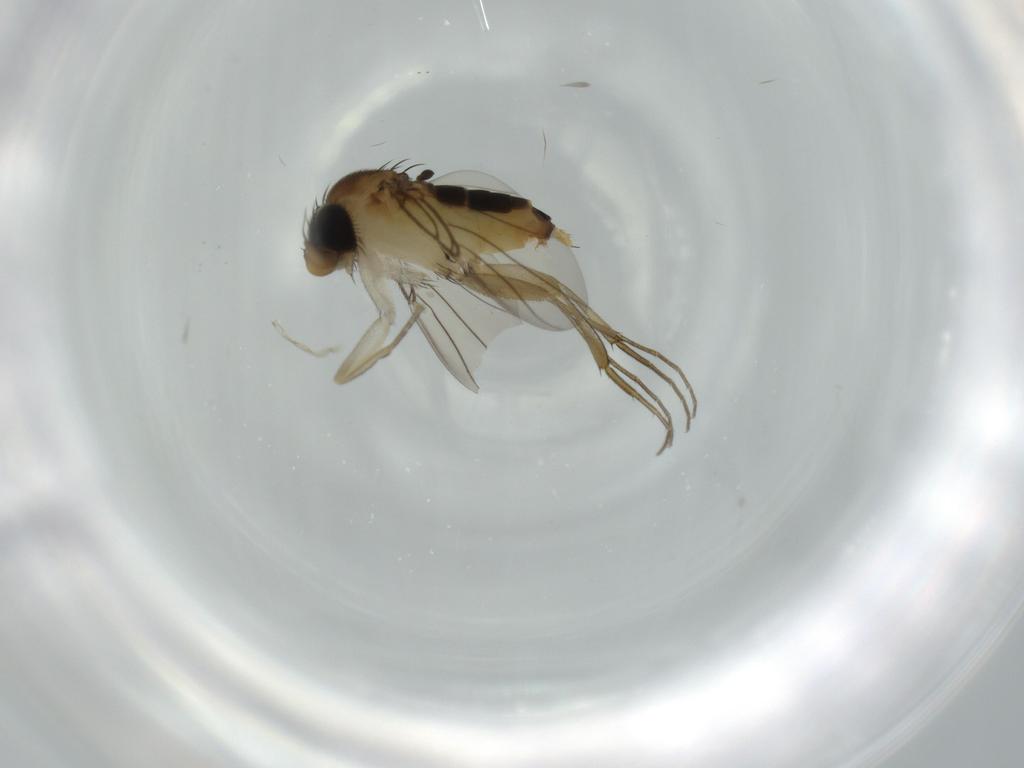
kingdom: Animalia
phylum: Arthropoda
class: Insecta
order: Diptera
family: Phoridae
